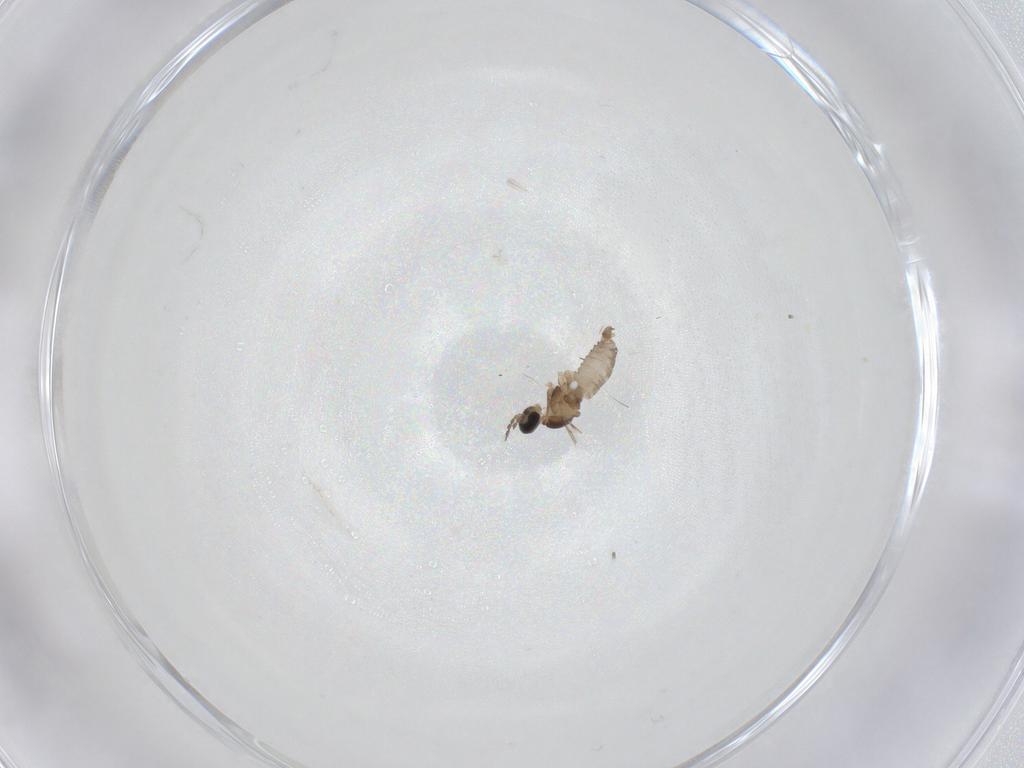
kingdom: Animalia
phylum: Arthropoda
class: Insecta
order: Diptera
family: Cecidomyiidae
